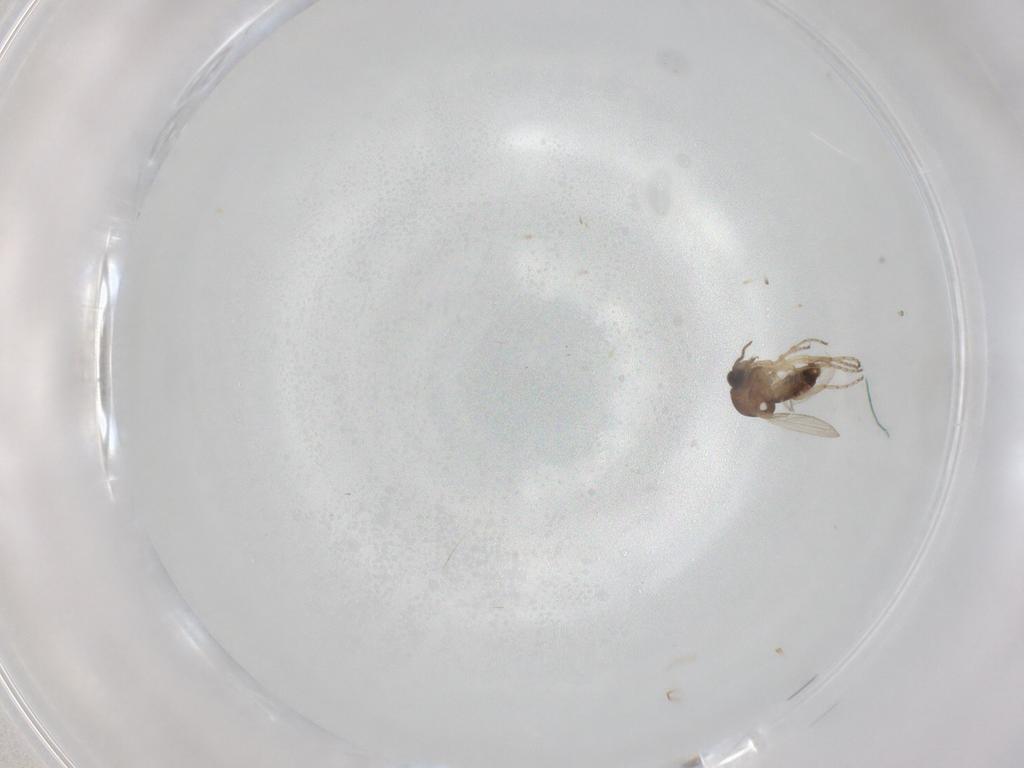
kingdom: Animalia
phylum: Arthropoda
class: Insecta
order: Diptera
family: Ceratopogonidae
